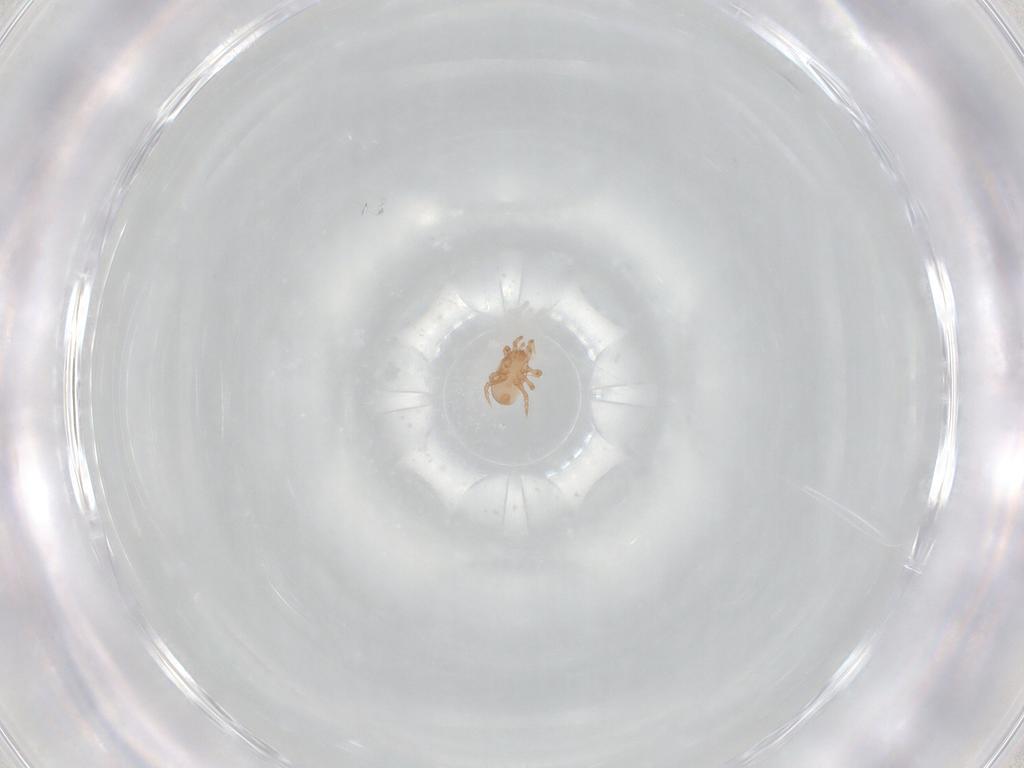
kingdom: Animalia
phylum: Arthropoda
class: Arachnida
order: Mesostigmata
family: Ascidae
